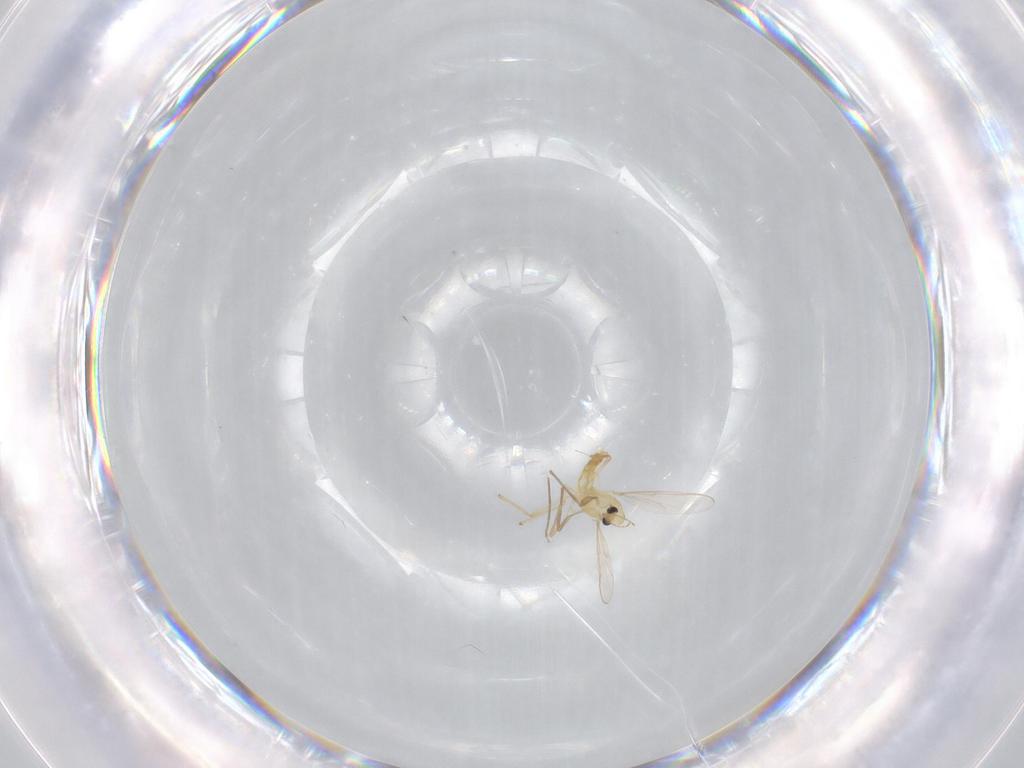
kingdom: Animalia
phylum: Arthropoda
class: Insecta
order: Diptera
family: Chironomidae
